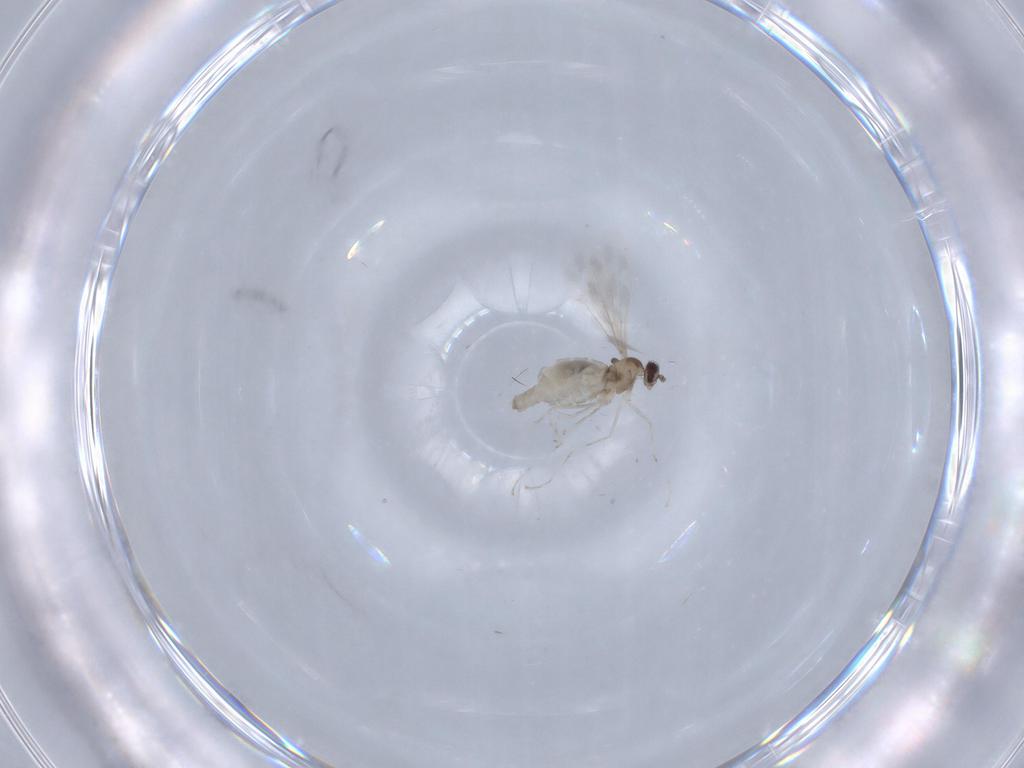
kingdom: Animalia
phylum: Arthropoda
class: Insecta
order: Diptera
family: Cecidomyiidae
